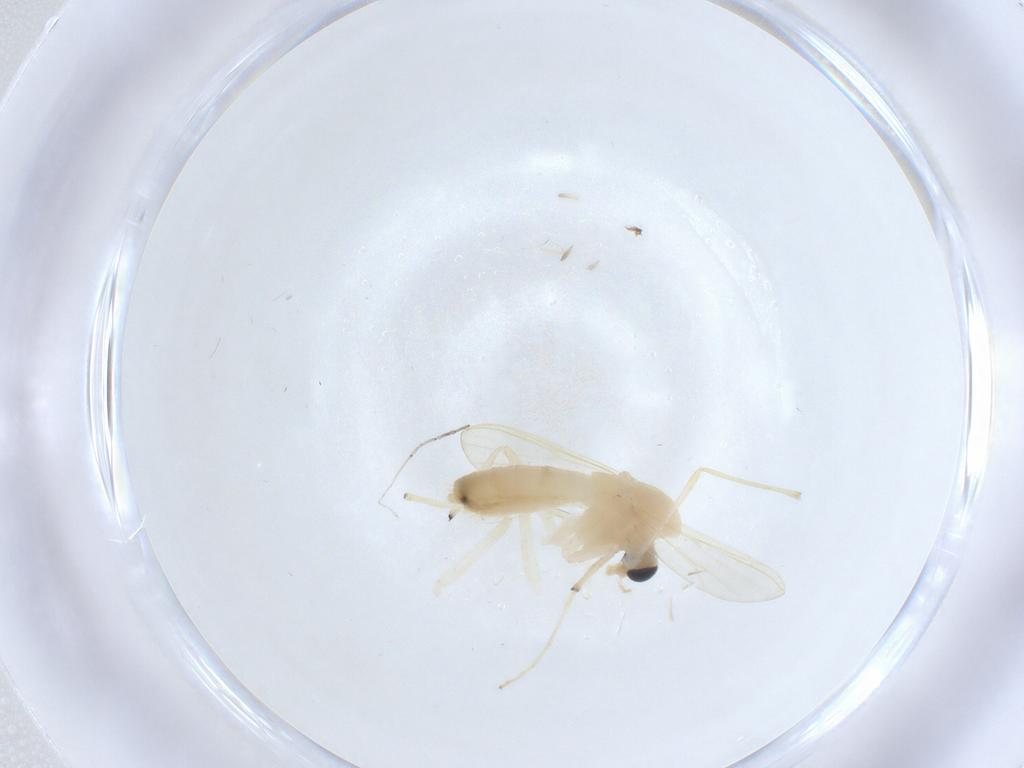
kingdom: Animalia
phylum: Arthropoda
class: Insecta
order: Diptera
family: Chironomidae
